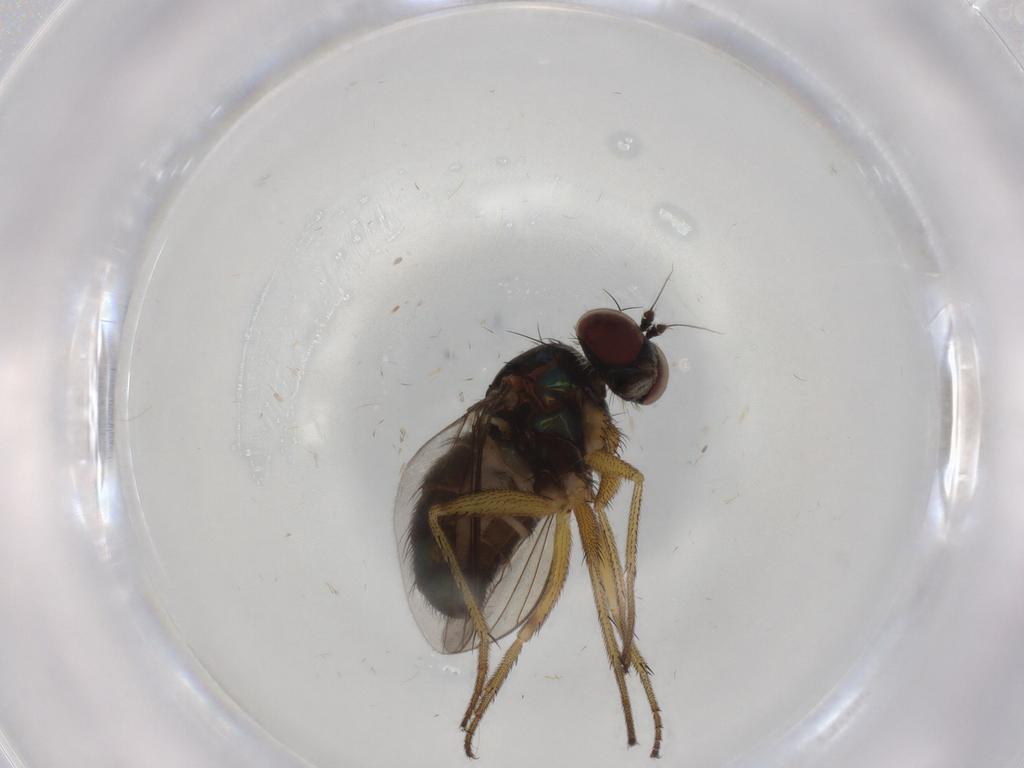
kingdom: Animalia
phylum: Arthropoda
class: Insecta
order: Diptera
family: Dolichopodidae
